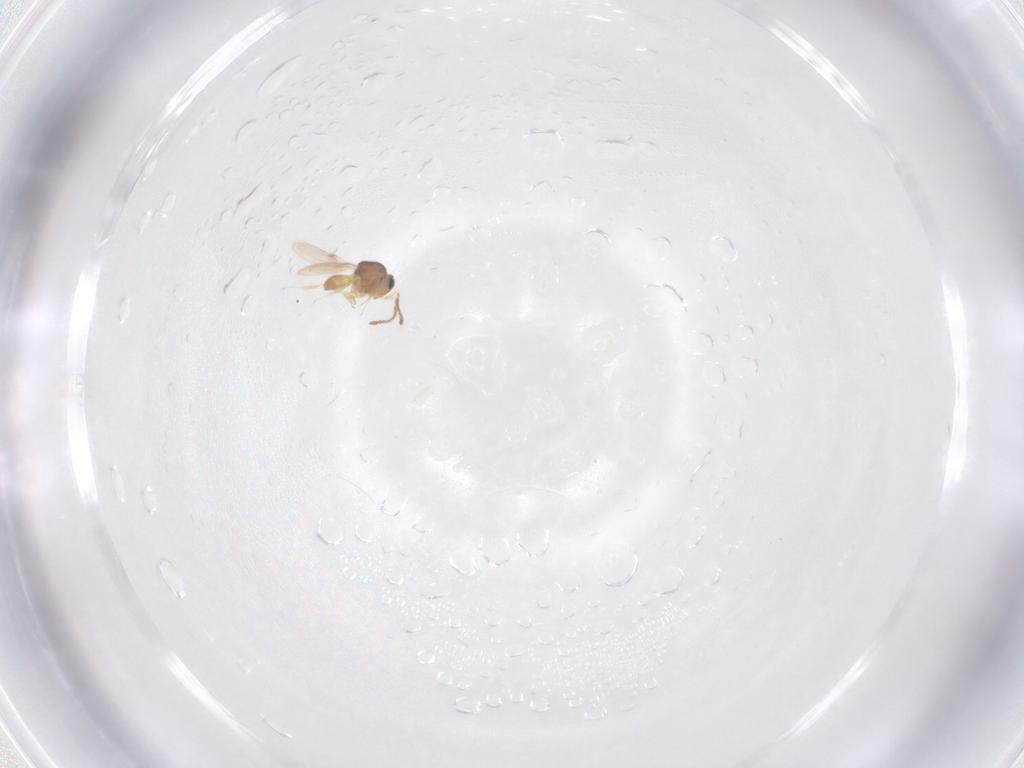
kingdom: Animalia
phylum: Arthropoda
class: Insecta
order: Hymenoptera
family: Scelionidae
